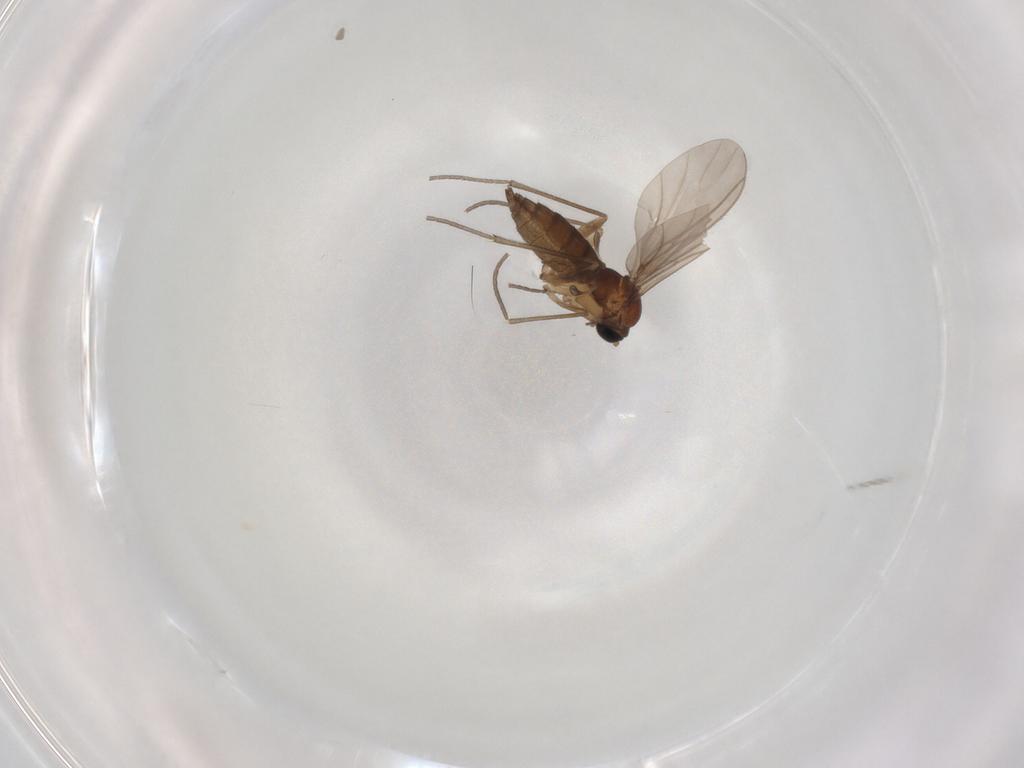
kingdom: Animalia
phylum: Arthropoda
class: Insecta
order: Diptera
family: Sciaridae
